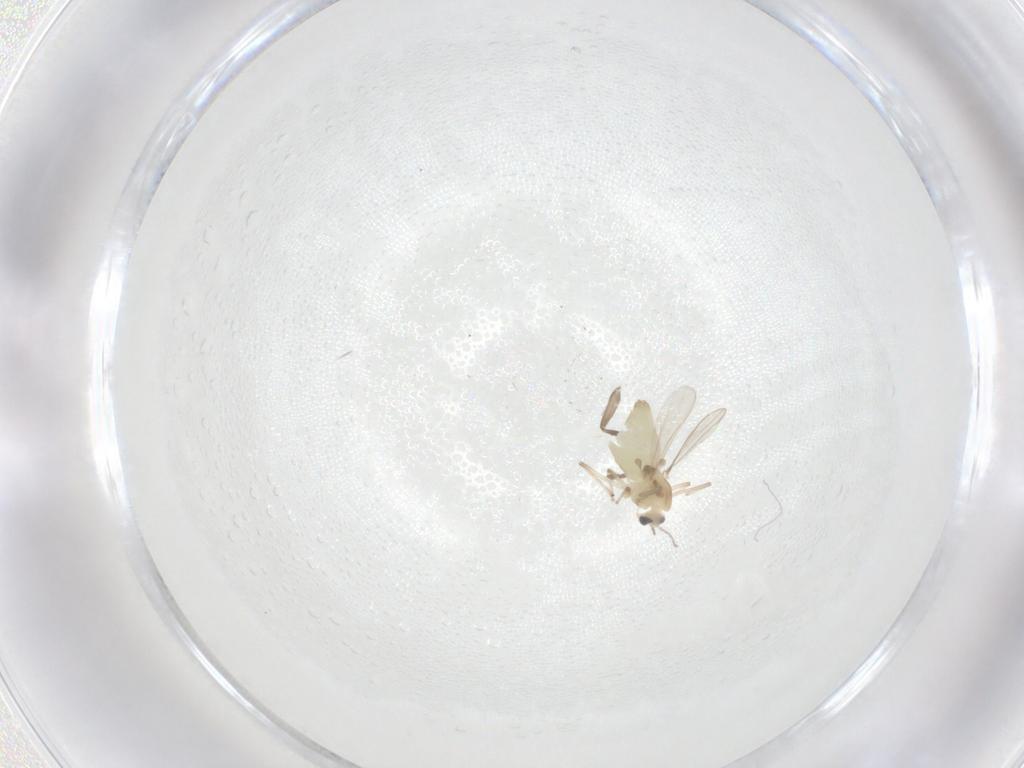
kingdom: Animalia
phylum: Arthropoda
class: Insecta
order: Diptera
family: Chironomidae
